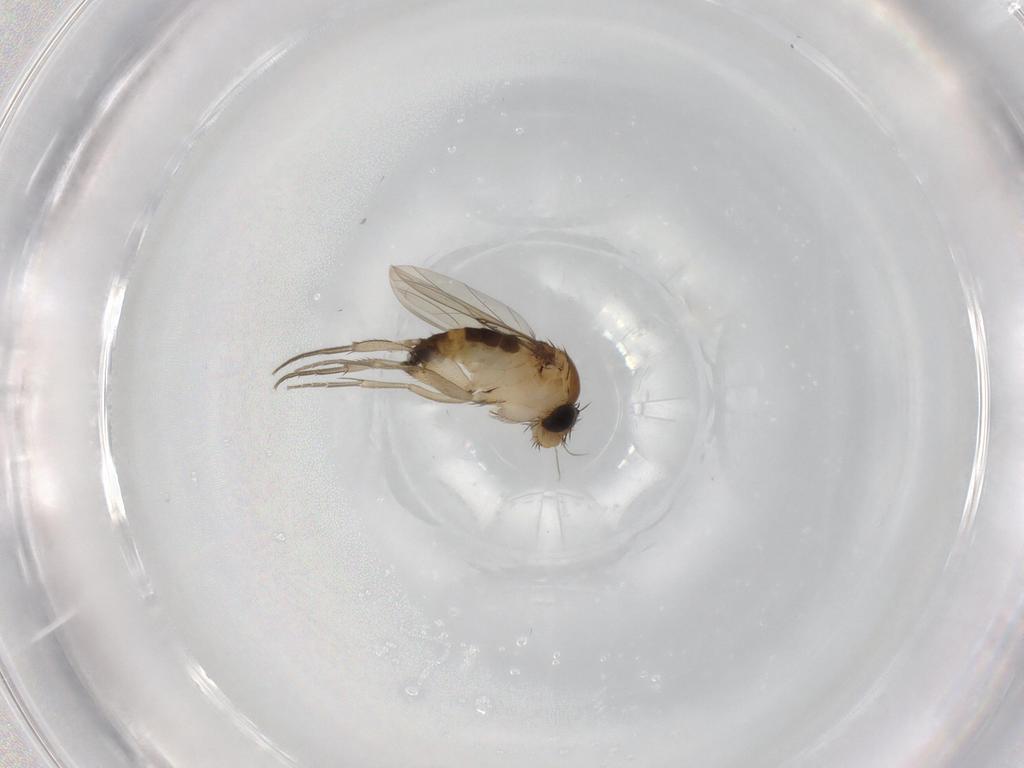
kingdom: Animalia
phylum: Arthropoda
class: Insecta
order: Diptera
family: Phoridae
